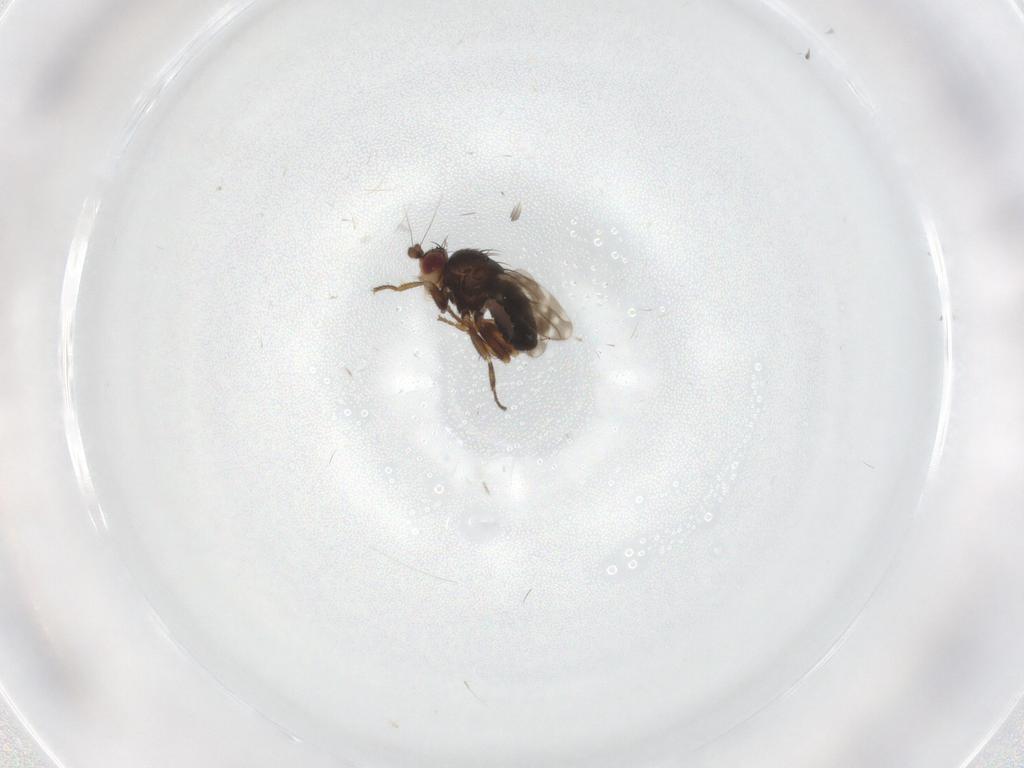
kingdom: Animalia
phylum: Arthropoda
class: Insecta
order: Diptera
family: Sphaeroceridae
